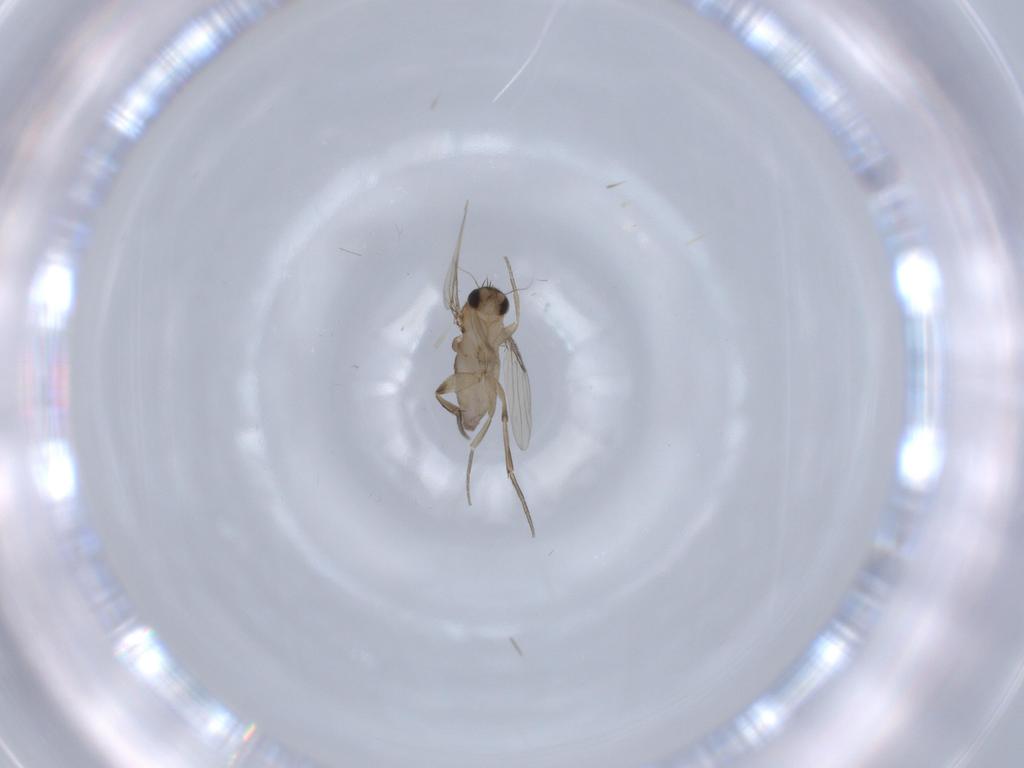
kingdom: Animalia
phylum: Arthropoda
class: Insecta
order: Diptera
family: Phoridae
